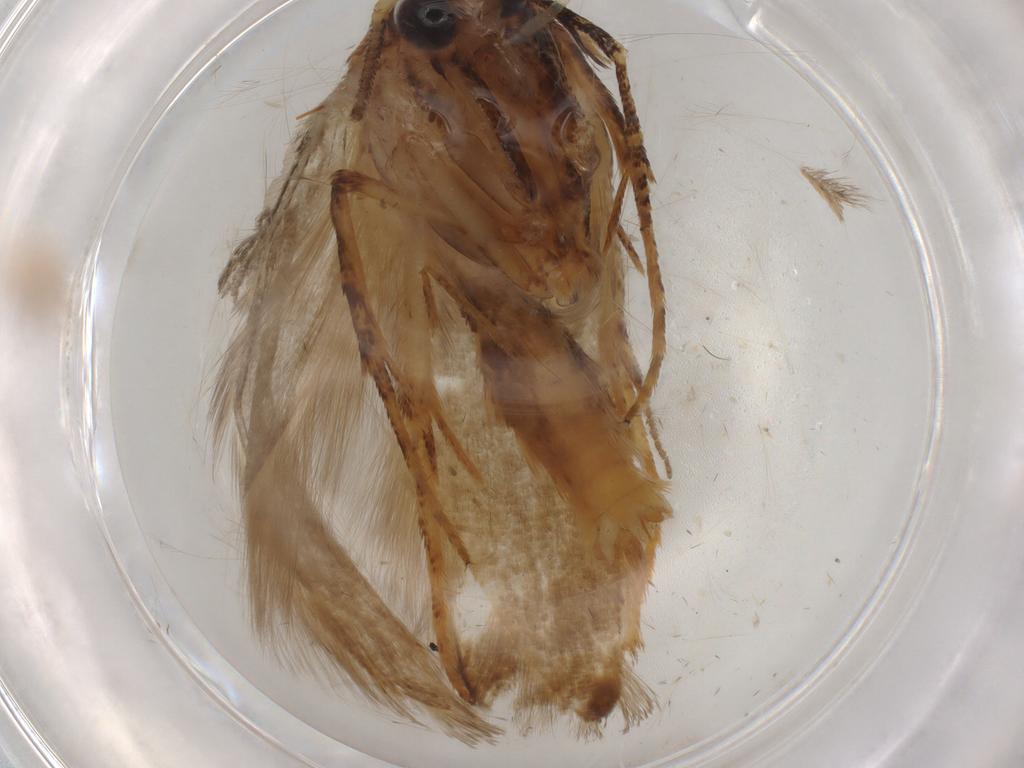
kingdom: Animalia
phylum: Arthropoda
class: Insecta
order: Lepidoptera
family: Blastobasidae
